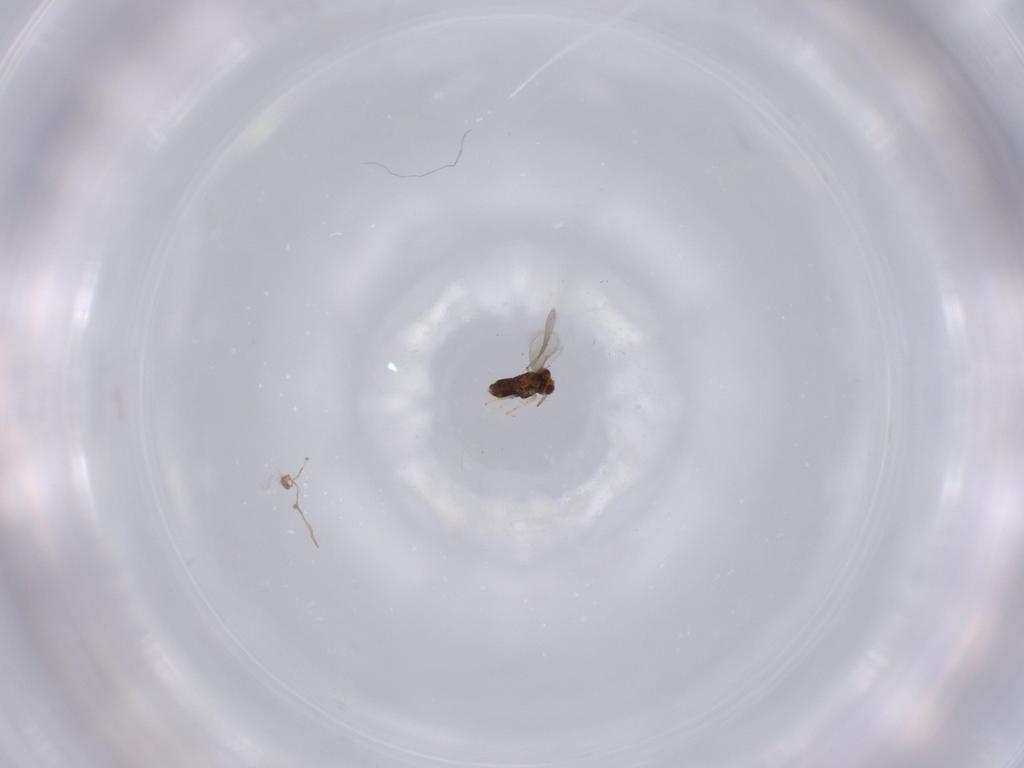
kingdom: Animalia
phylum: Arthropoda
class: Insecta
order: Hymenoptera
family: Aphelinidae
